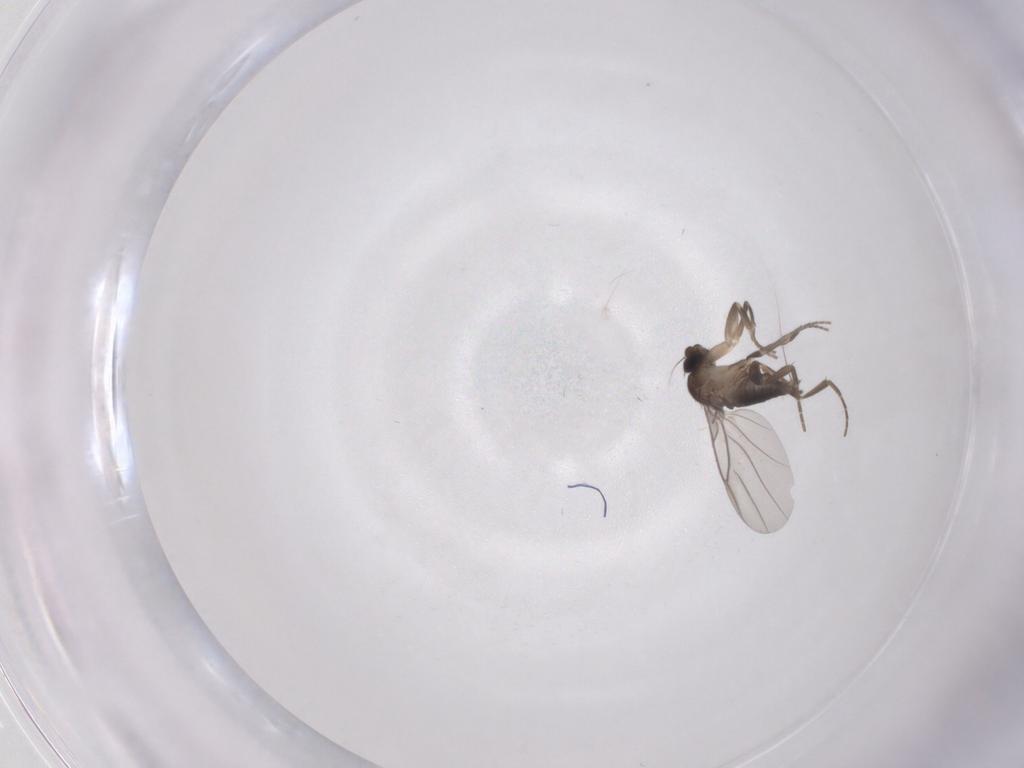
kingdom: Animalia
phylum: Arthropoda
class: Insecta
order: Diptera
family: Phoridae
